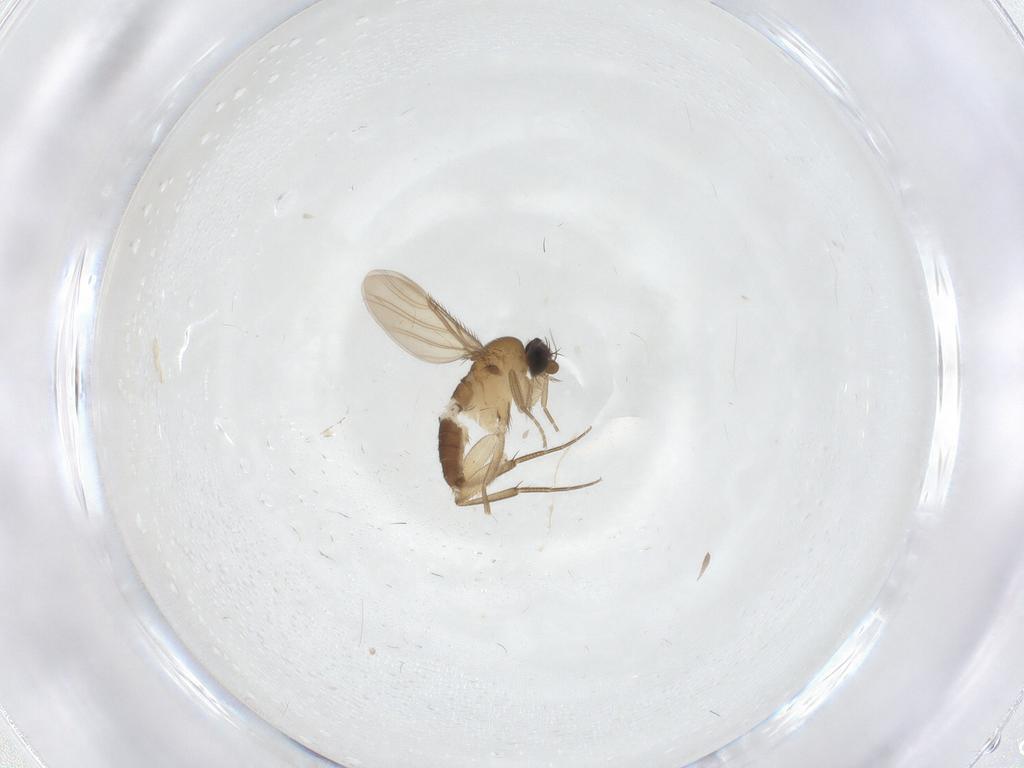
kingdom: Animalia
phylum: Arthropoda
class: Insecta
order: Diptera
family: Phoridae
